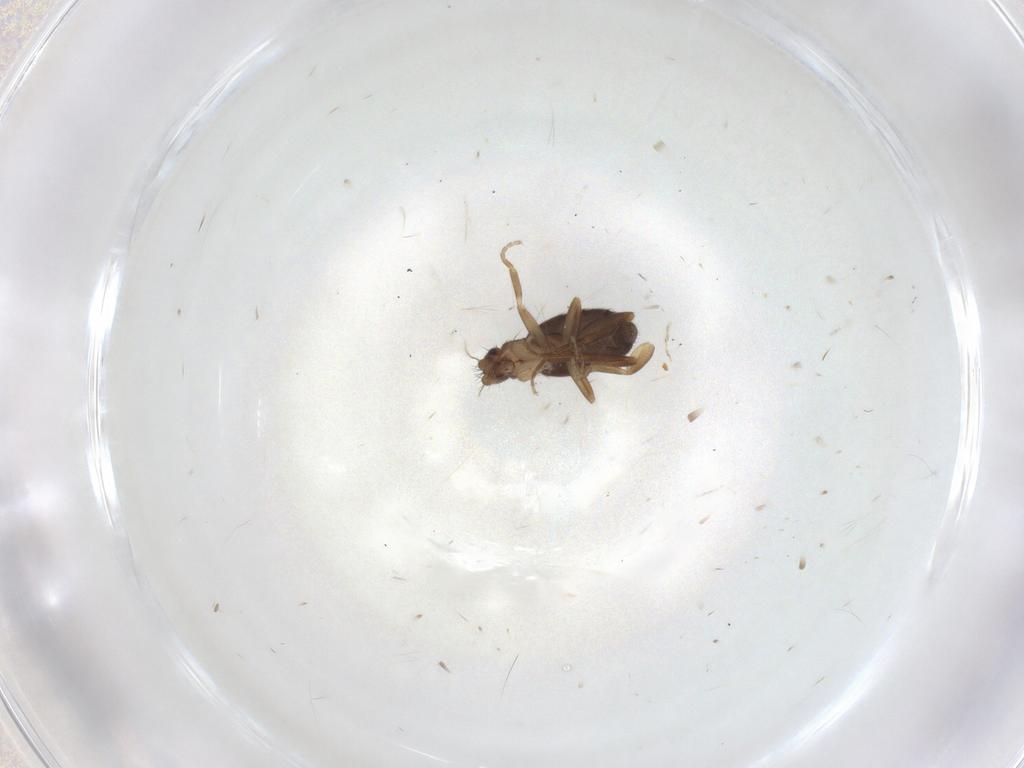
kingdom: Animalia
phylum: Arthropoda
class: Insecta
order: Diptera
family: Phoridae
